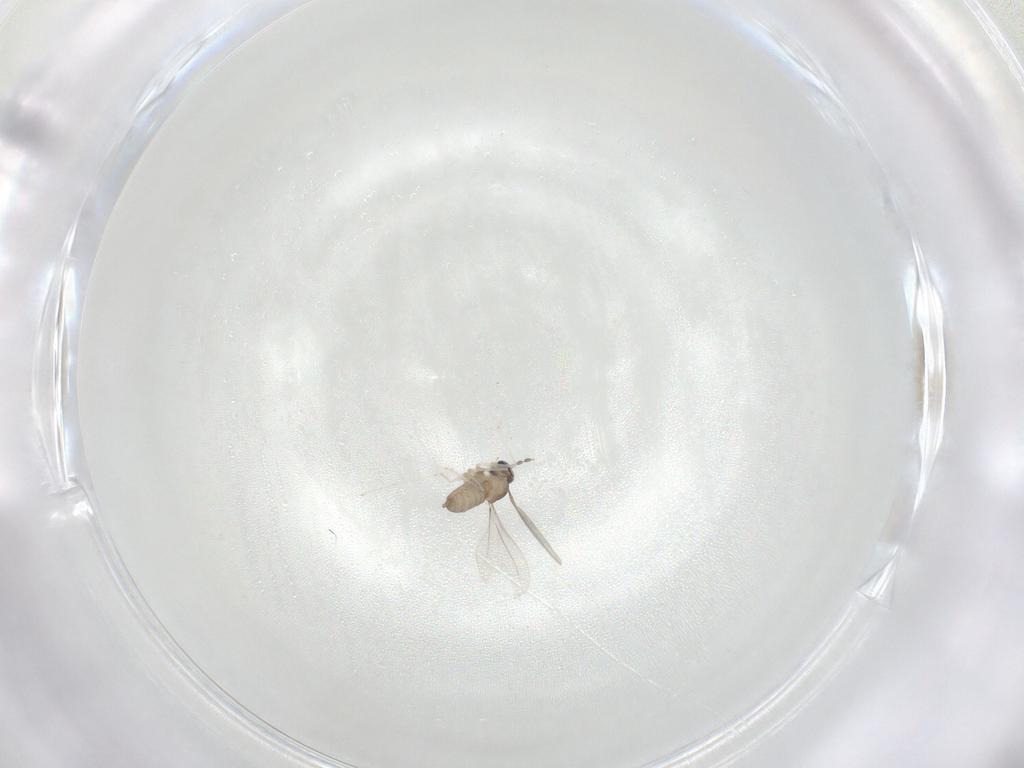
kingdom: Animalia
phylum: Arthropoda
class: Insecta
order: Diptera
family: Cecidomyiidae
